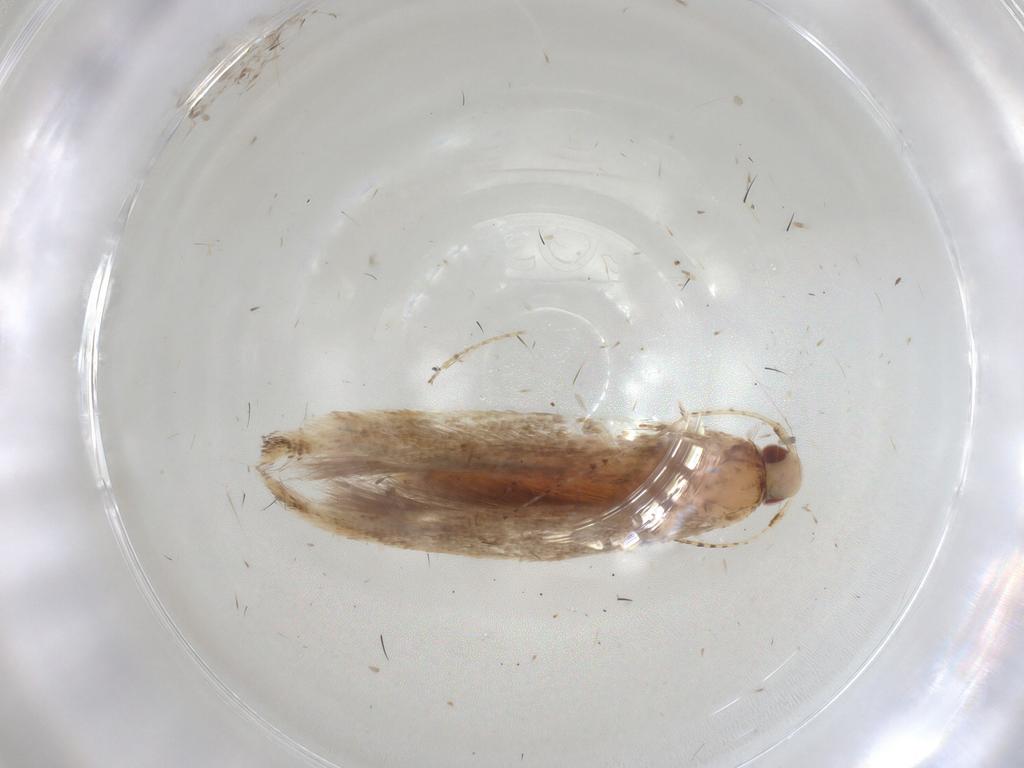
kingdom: Animalia
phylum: Arthropoda
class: Insecta
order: Lepidoptera
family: Cosmopterigidae
